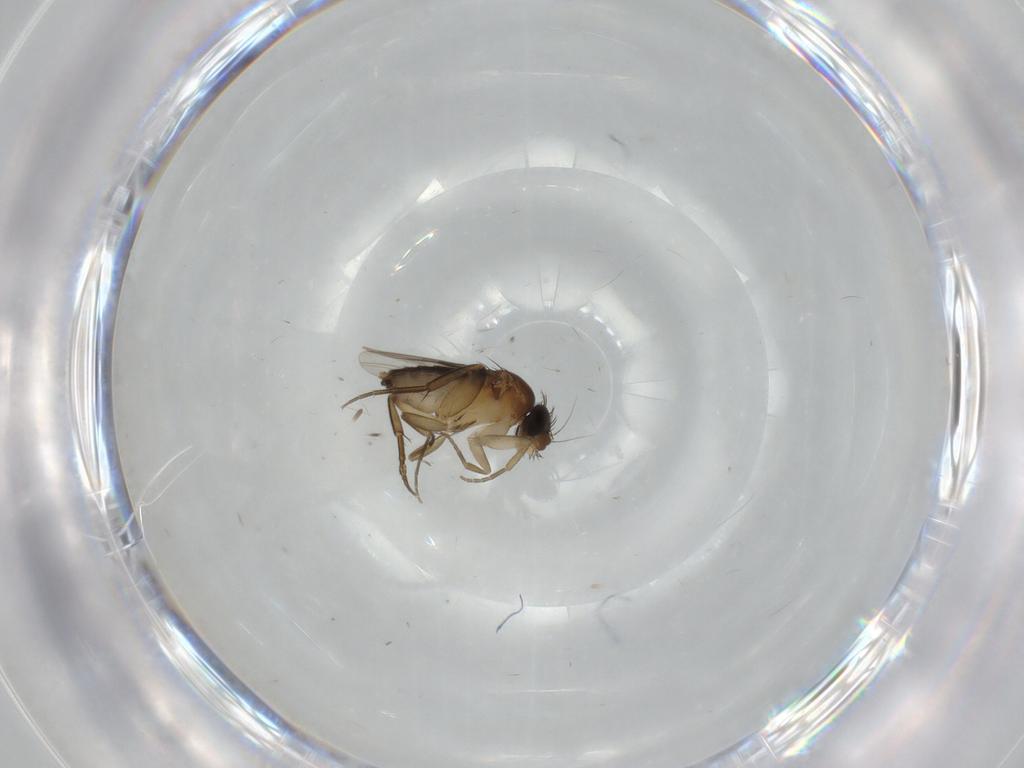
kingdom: Animalia
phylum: Arthropoda
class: Insecta
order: Diptera
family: Phoridae
